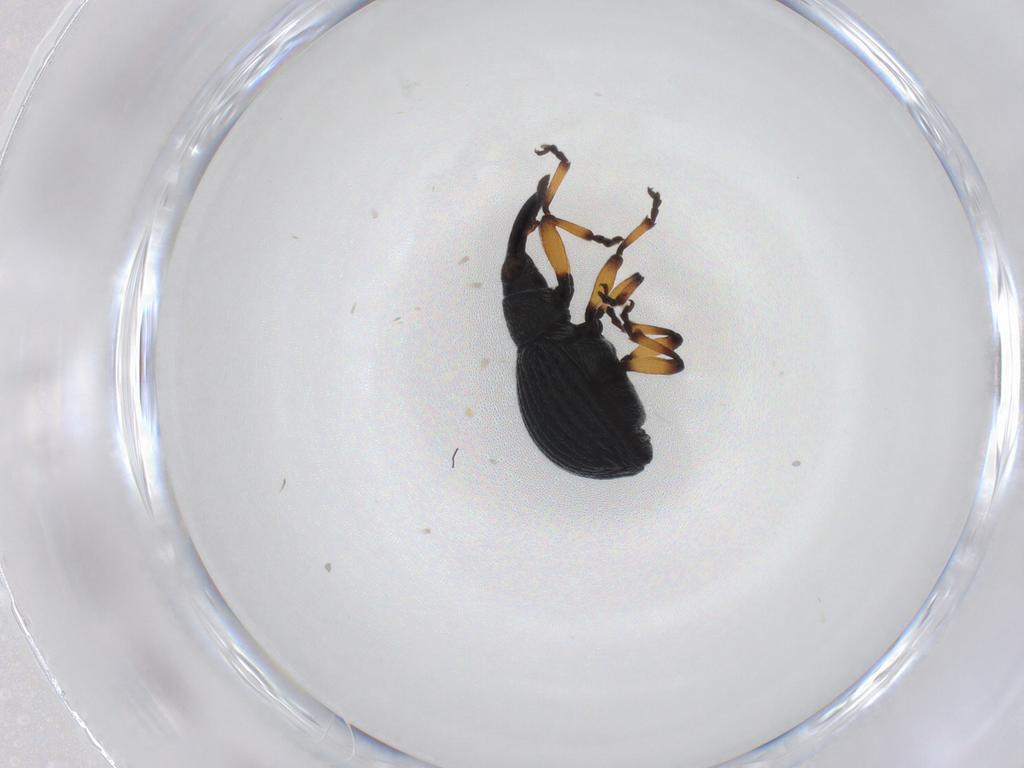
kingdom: Animalia
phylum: Arthropoda
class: Insecta
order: Coleoptera
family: Brentidae
